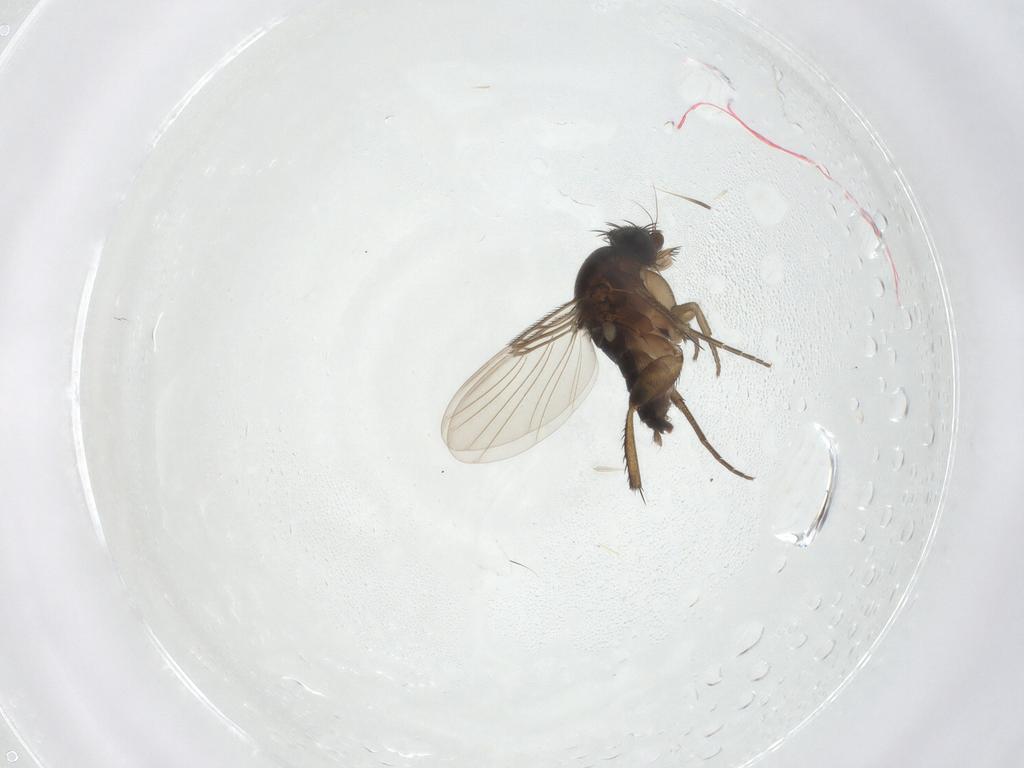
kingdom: Animalia
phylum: Arthropoda
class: Insecta
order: Diptera
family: Phoridae
